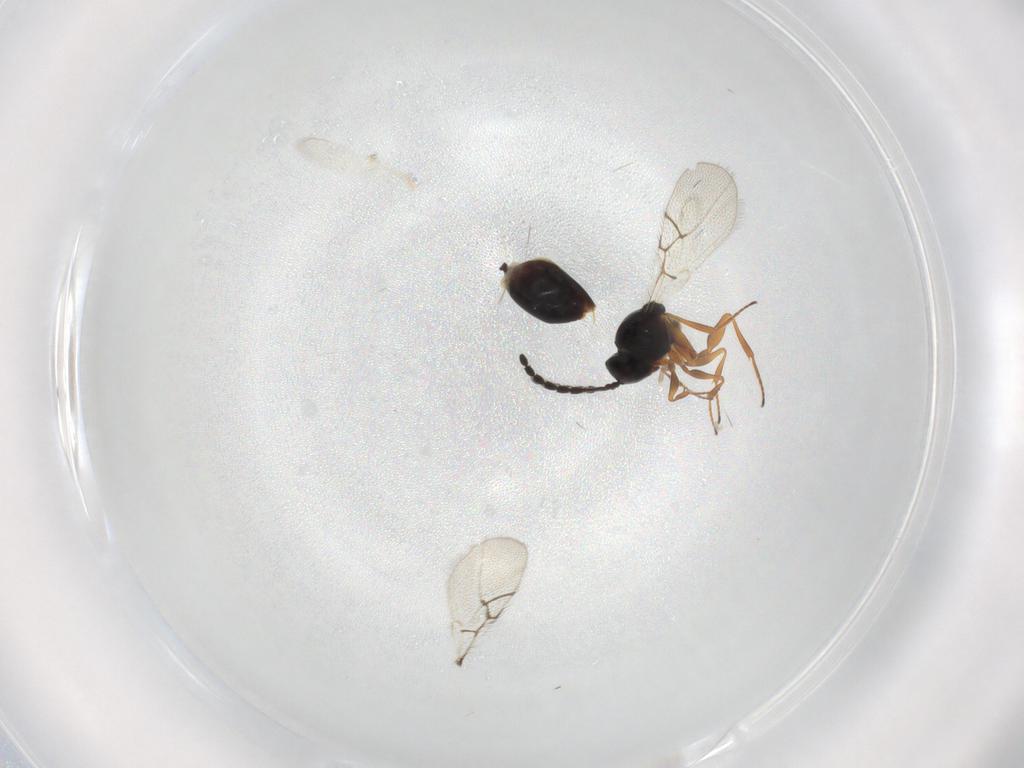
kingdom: Animalia
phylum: Arthropoda
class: Insecta
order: Hymenoptera
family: Figitidae
